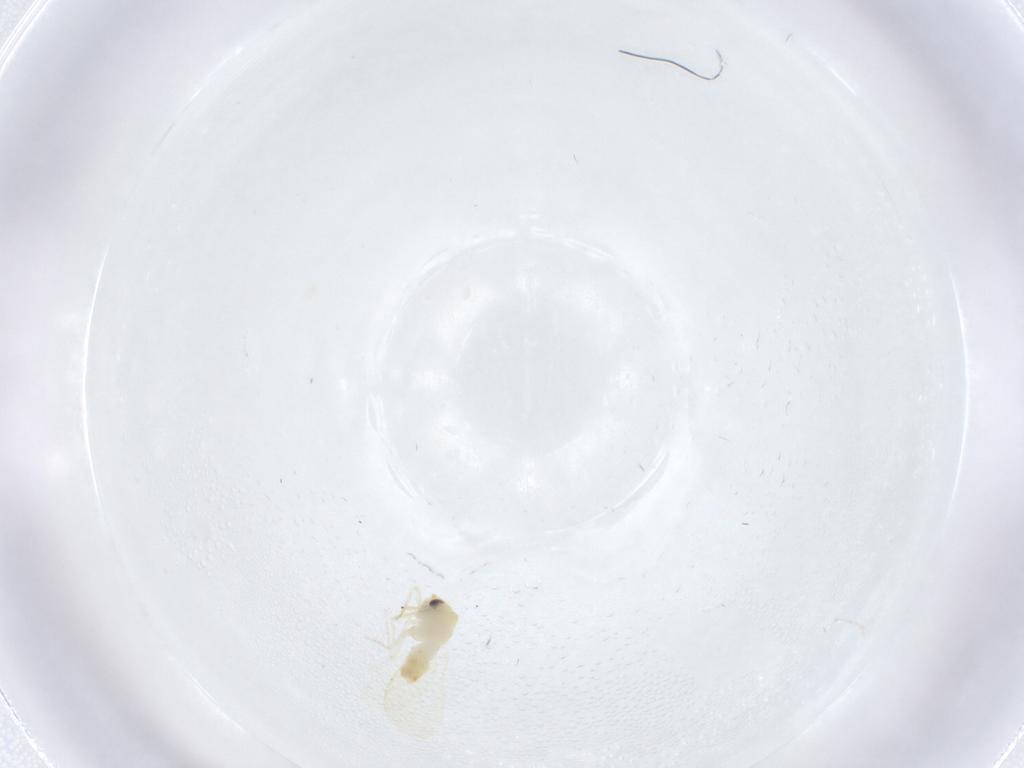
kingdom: Animalia
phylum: Arthropoda
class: Insecta
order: Hemiptera
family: Aleyrodidae
